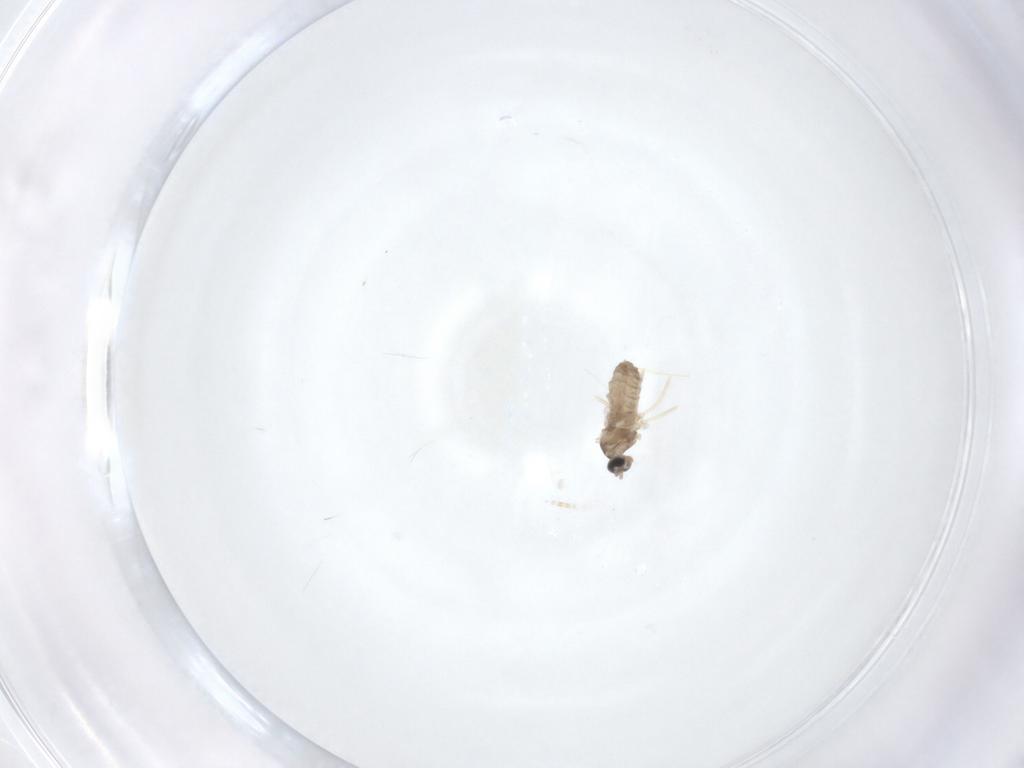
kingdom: Animalia
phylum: Arthropoda
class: Insecta
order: Diptera
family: Cecidomyiidae
